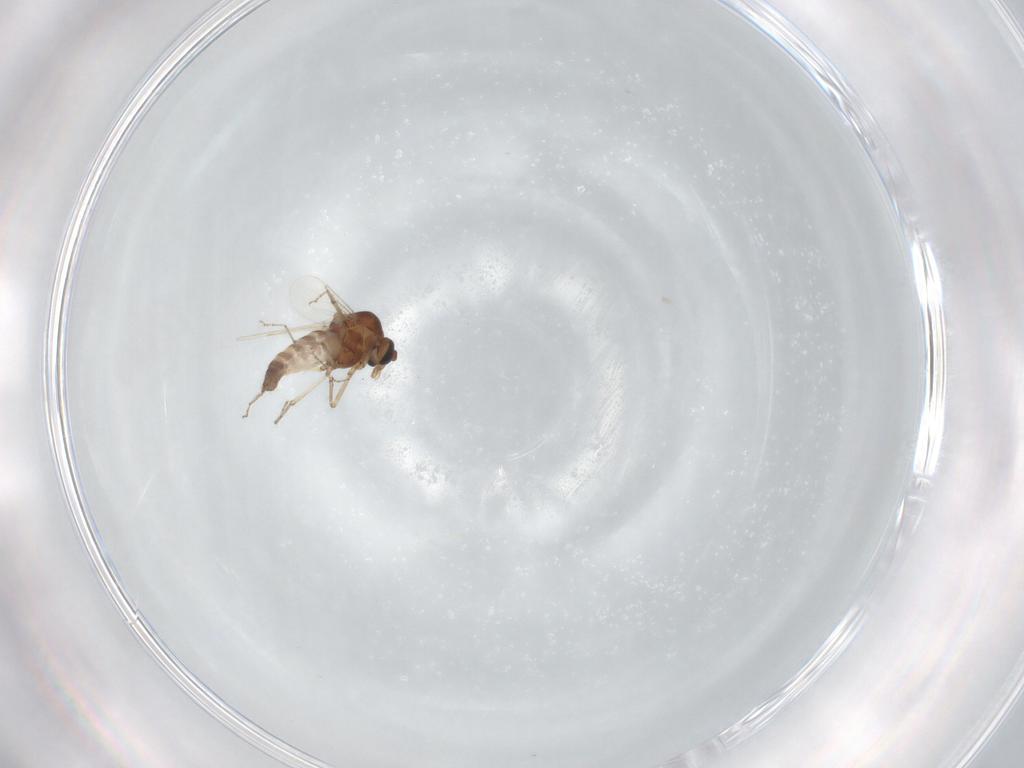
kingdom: Animalia
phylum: Arthropoda
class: Insecta
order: Diptera
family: Ceratopogonidae
